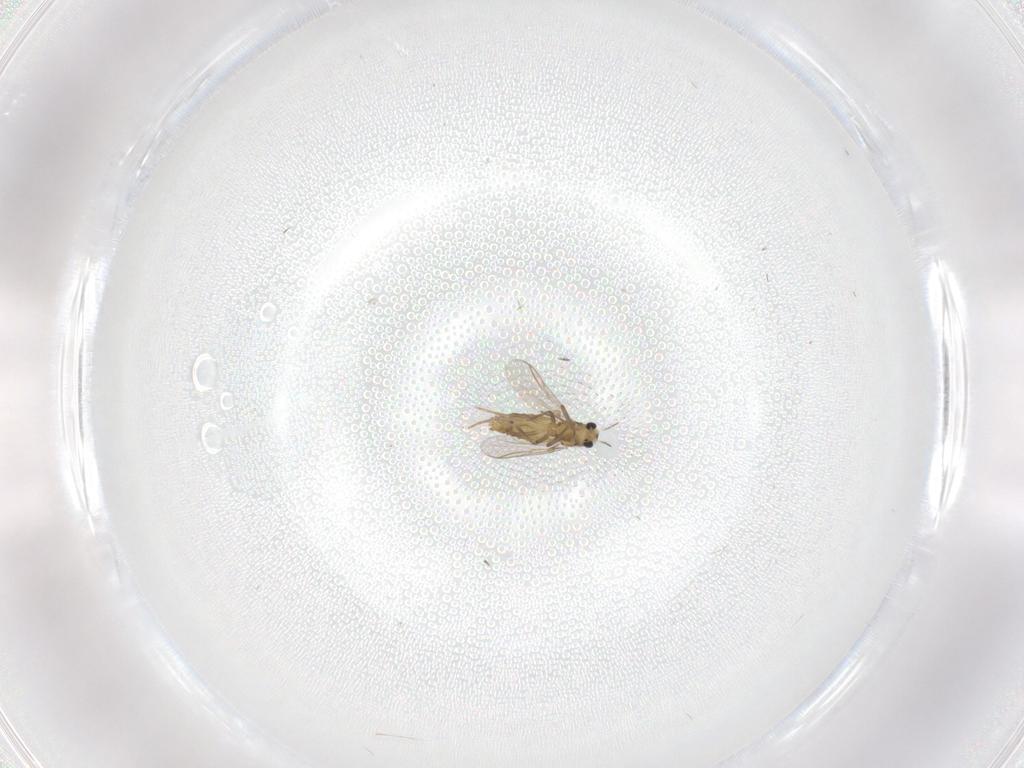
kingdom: Animalia
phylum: Arthropoda
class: Insecta
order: Diptera
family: Chironomidae
